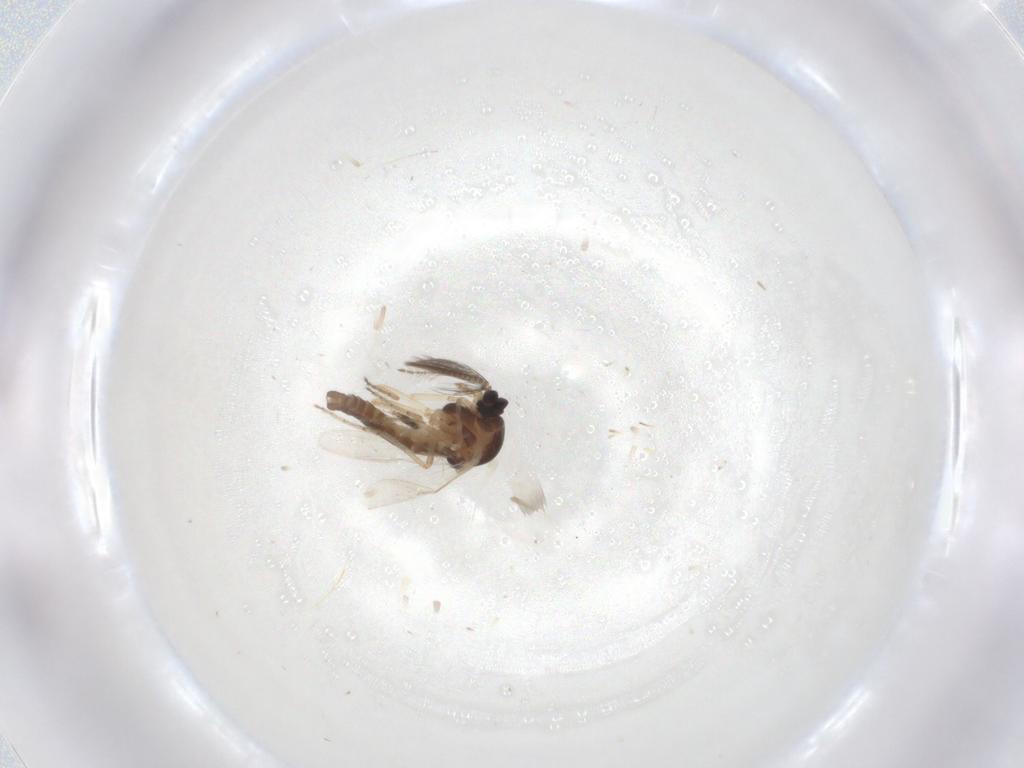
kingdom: Animalia
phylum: Arthropoda
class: Insecta
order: Diptera
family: Ceratopogonidae
